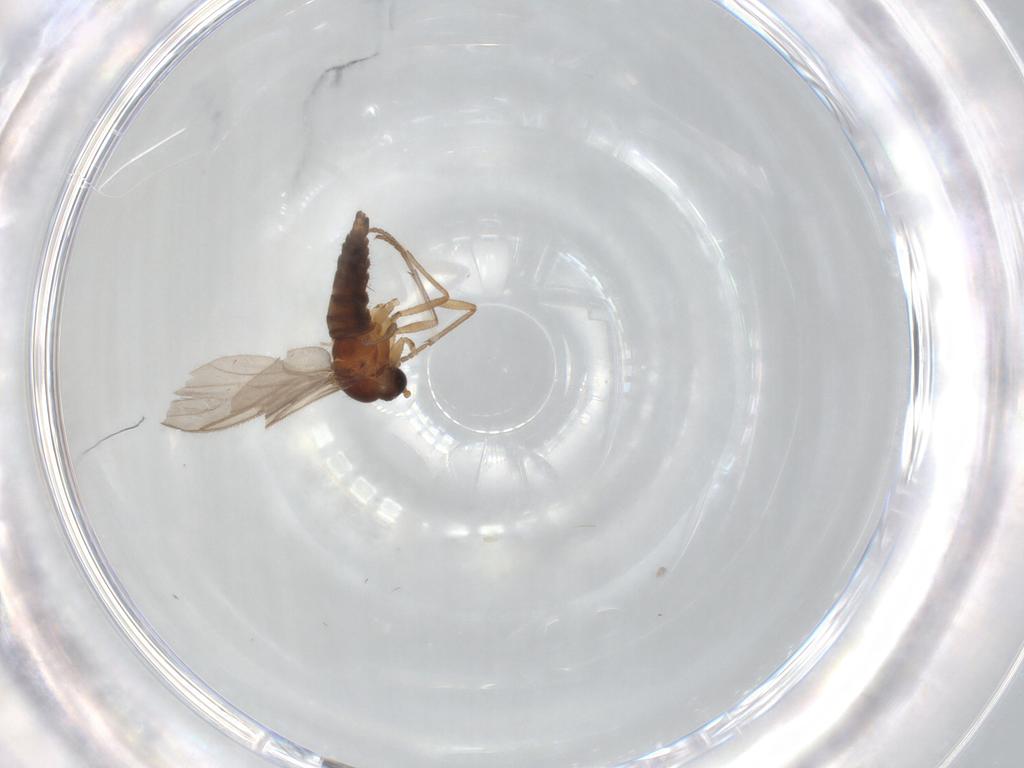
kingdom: Animalia
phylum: Arthropoda
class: Insecta
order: Diptera
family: Sciaridae
